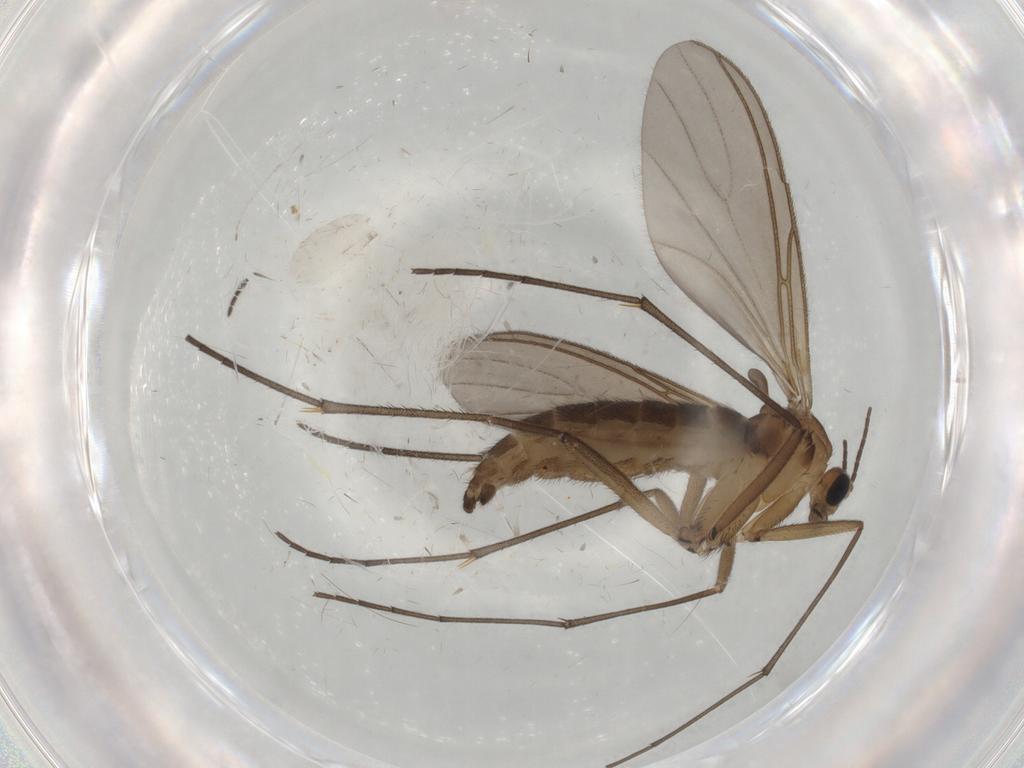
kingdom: Animalia
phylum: Arthropoda
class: Insecta
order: Diptera
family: Cecidomyiidae
